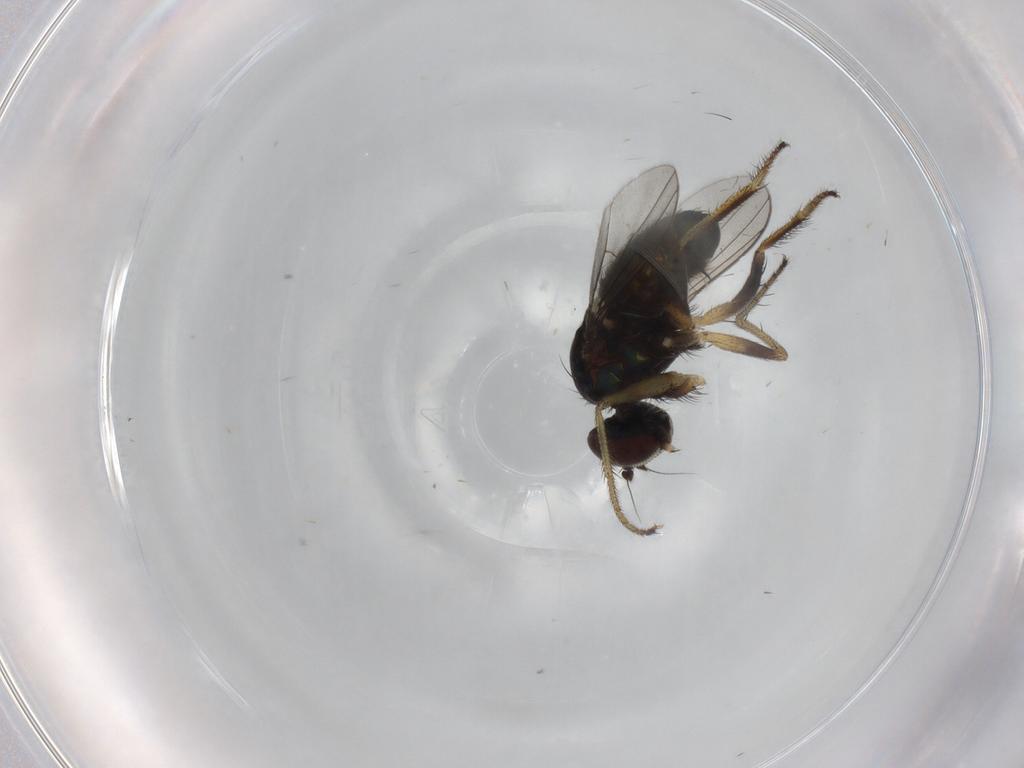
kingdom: Animalia
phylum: Arthropoda
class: Insecta
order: Diptera
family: Dolichopodidae
